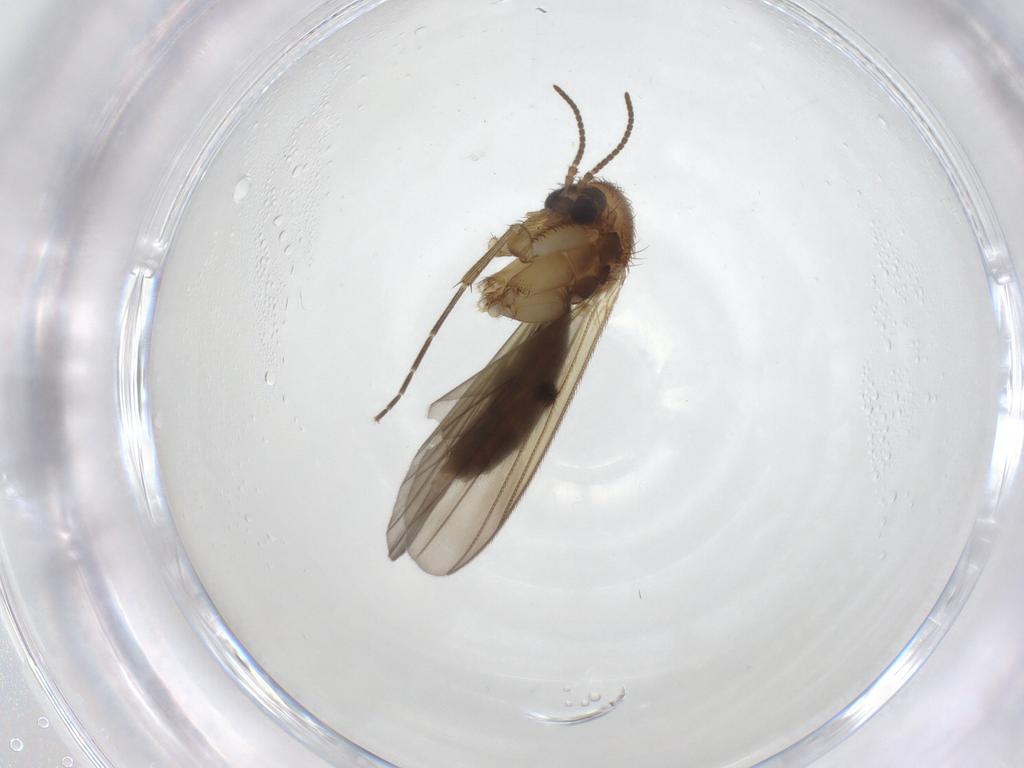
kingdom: Animalia
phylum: Arthropoda
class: Insecta
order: Diptera
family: Mycetophilidae
